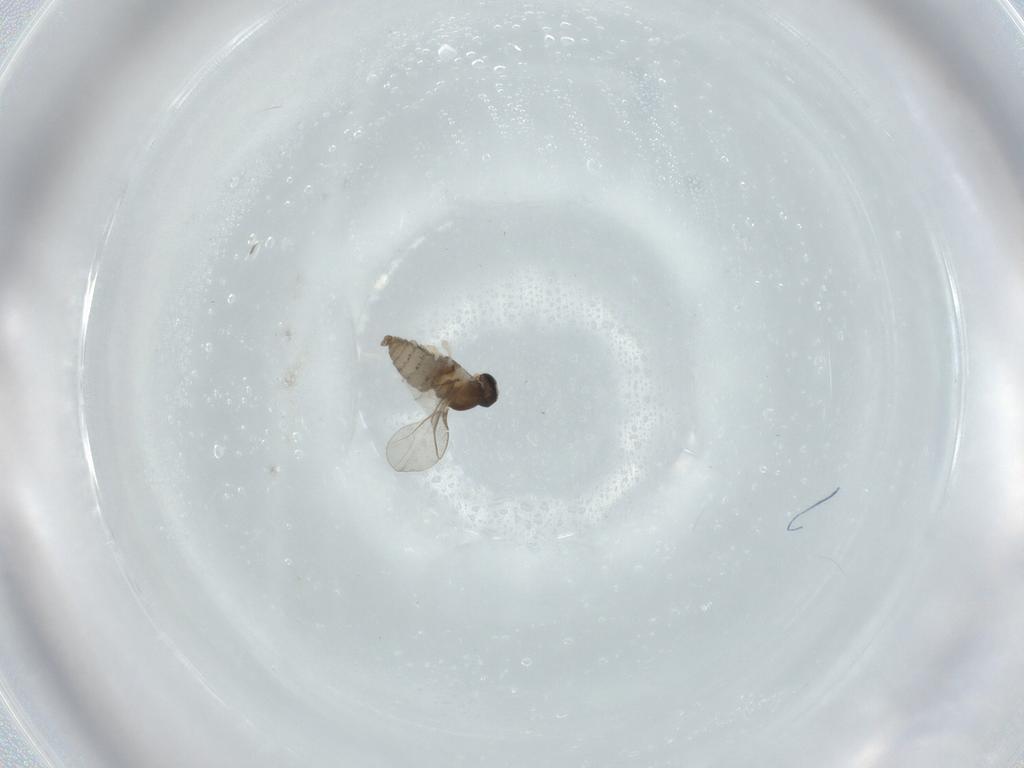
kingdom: Animalia
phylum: Arthropoda
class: Insecta
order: Diptera
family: Cecidomyiidae
